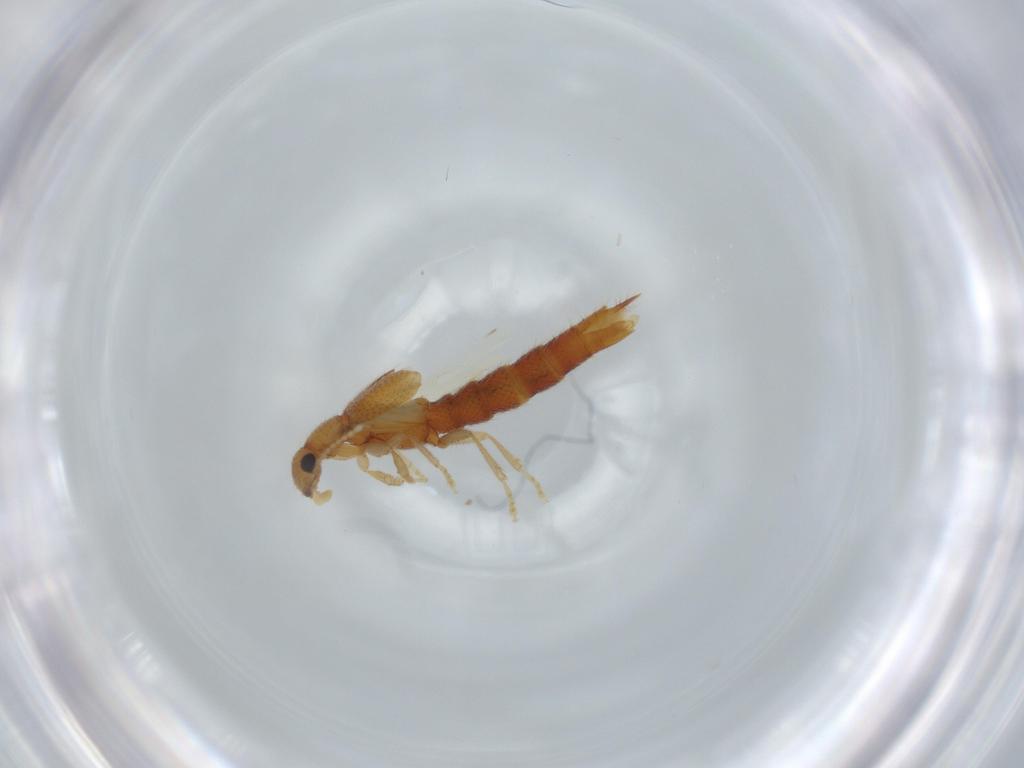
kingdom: Animalia
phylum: Arthropoda
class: Insecta
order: Coleoptera
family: Staphylinidae
